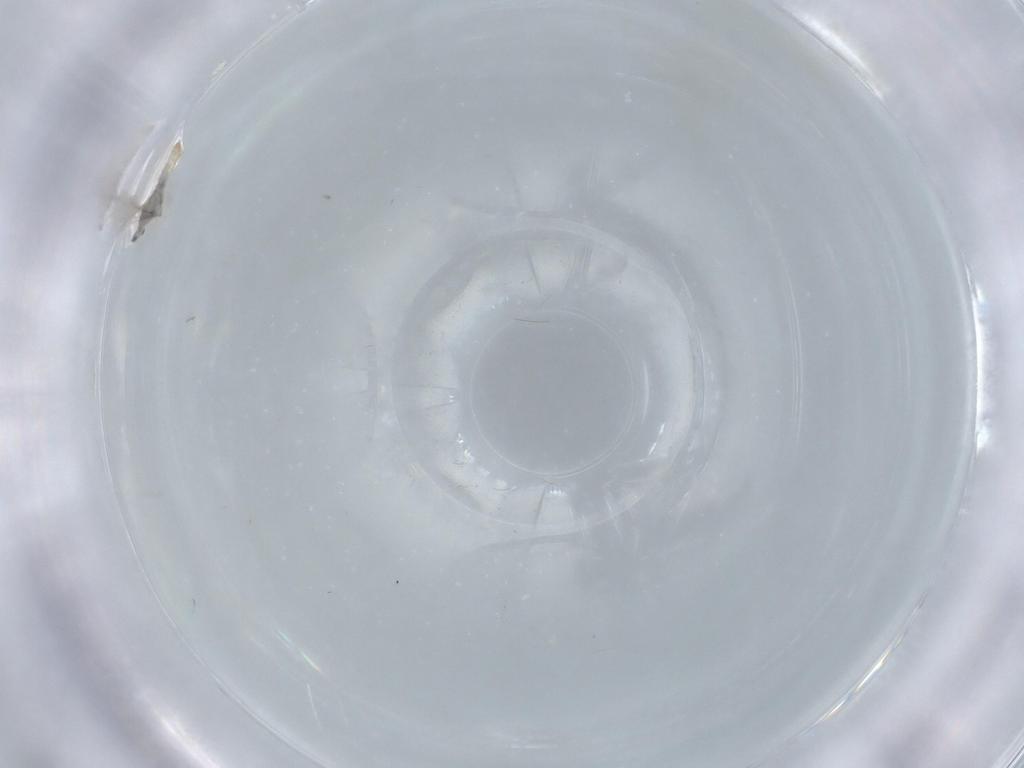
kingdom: Animalia
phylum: Arthropoda
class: Insecta
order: Diptera
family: Cecidomyiidae
